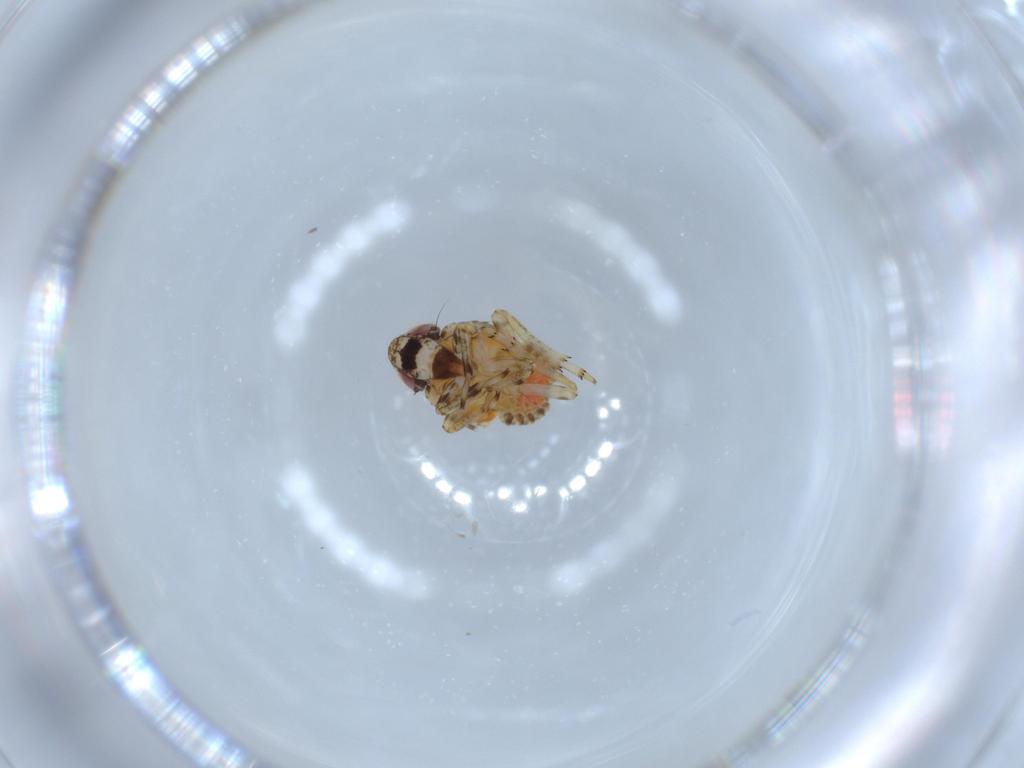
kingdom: Animalia
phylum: Arthropoda
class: Insecta
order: Hemiptera
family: Issidae
